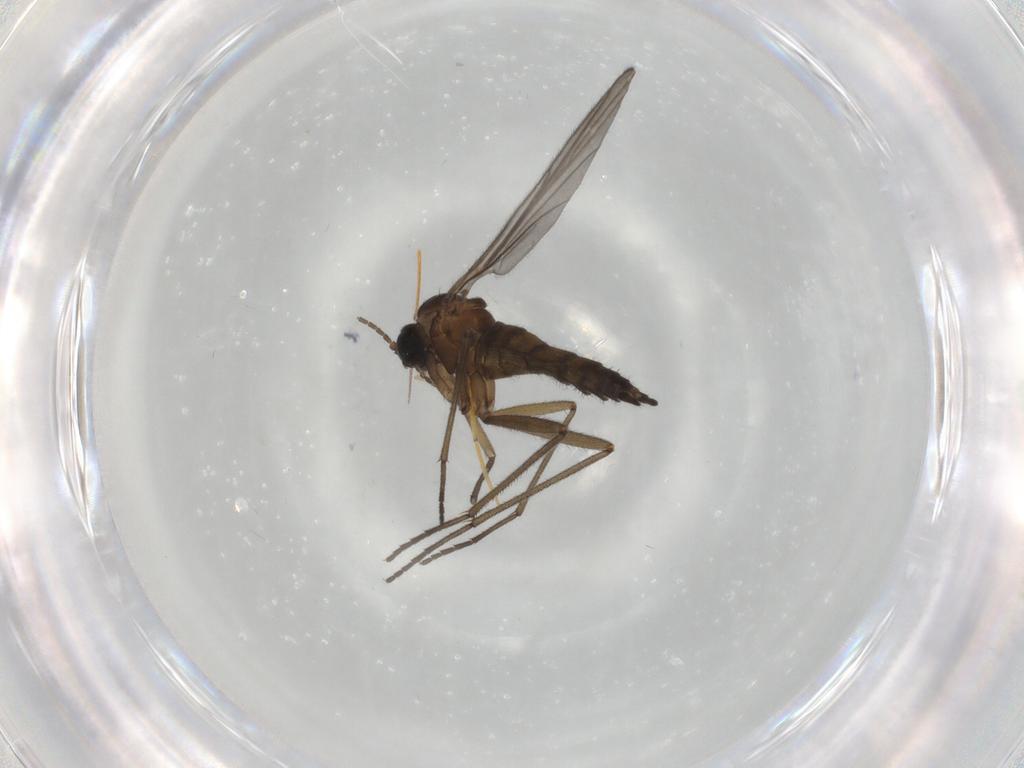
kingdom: Animalia
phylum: Arthropoda
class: Insecta
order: Diptera
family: Sciaridae
